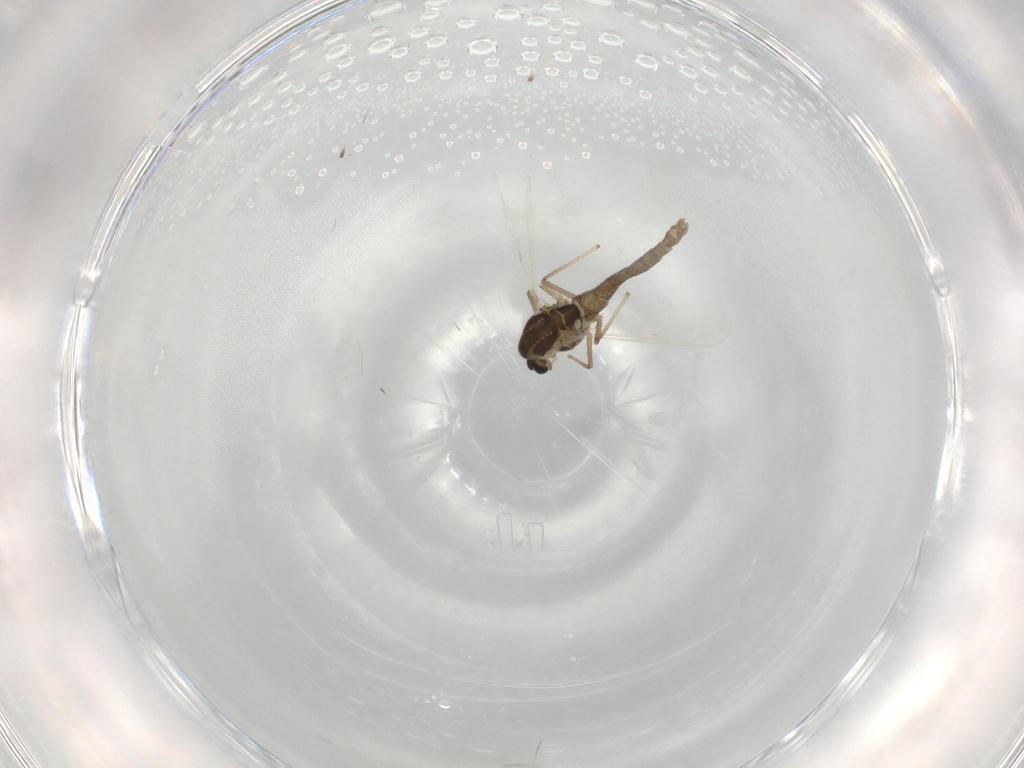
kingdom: Animalia
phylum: Arthropoda
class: Insecta
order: Diptera
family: Chironomidae
